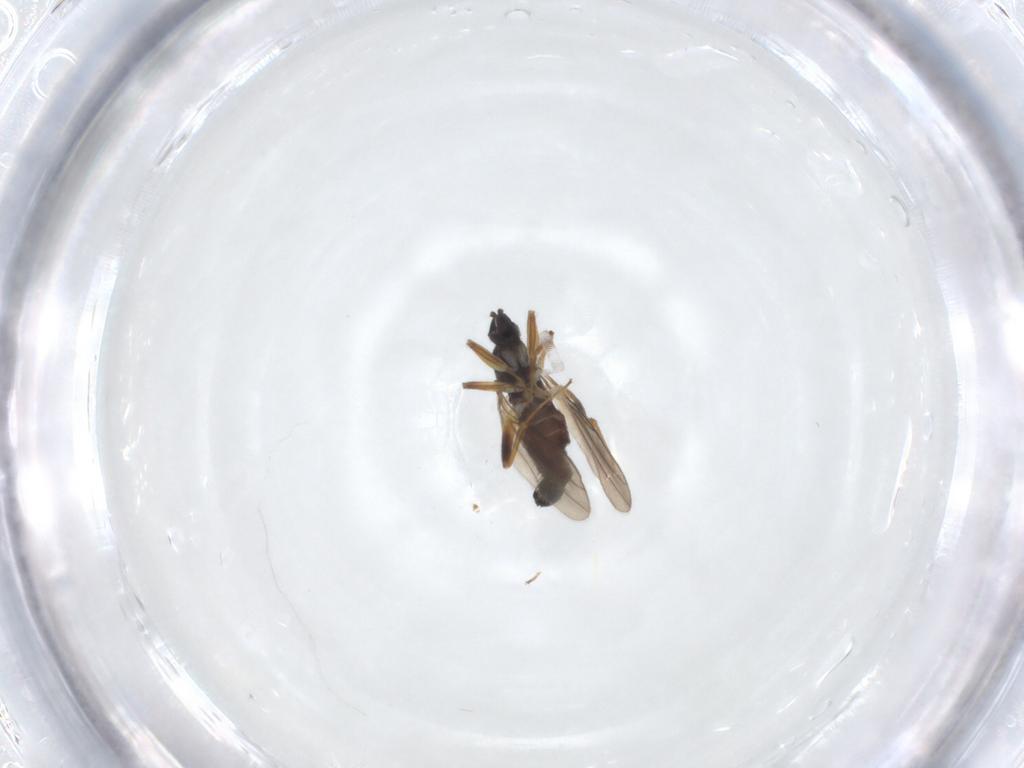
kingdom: Animalia
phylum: Arthropoda
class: Insecta
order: Diptera
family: Hybotidae
